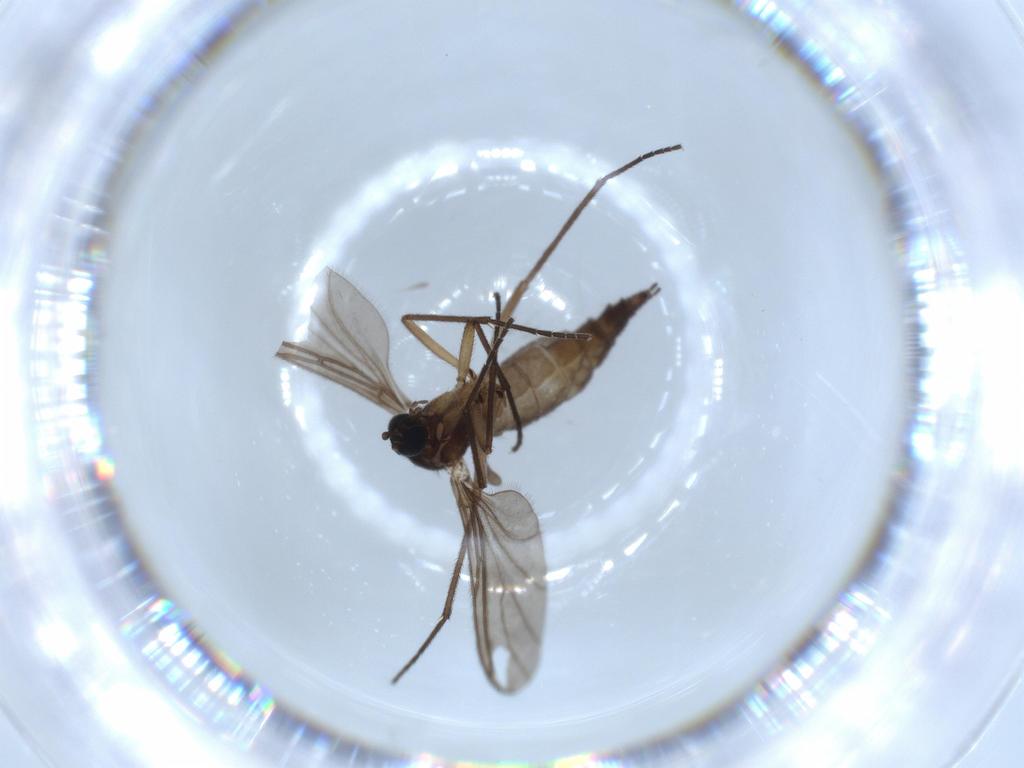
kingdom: Animalia
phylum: Arthropoda
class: Insecta
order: Diptera
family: Sciaridae
